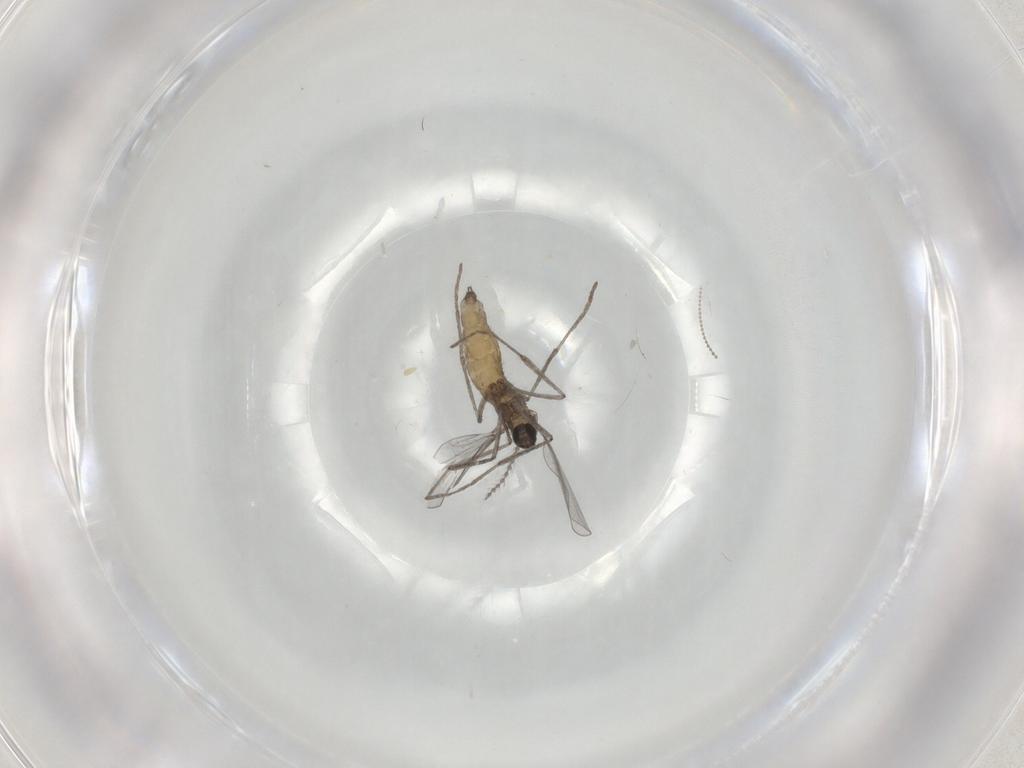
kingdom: Animalia
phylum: Arthropoda
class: Insecta
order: Diptera
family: Cecidomyiidae
